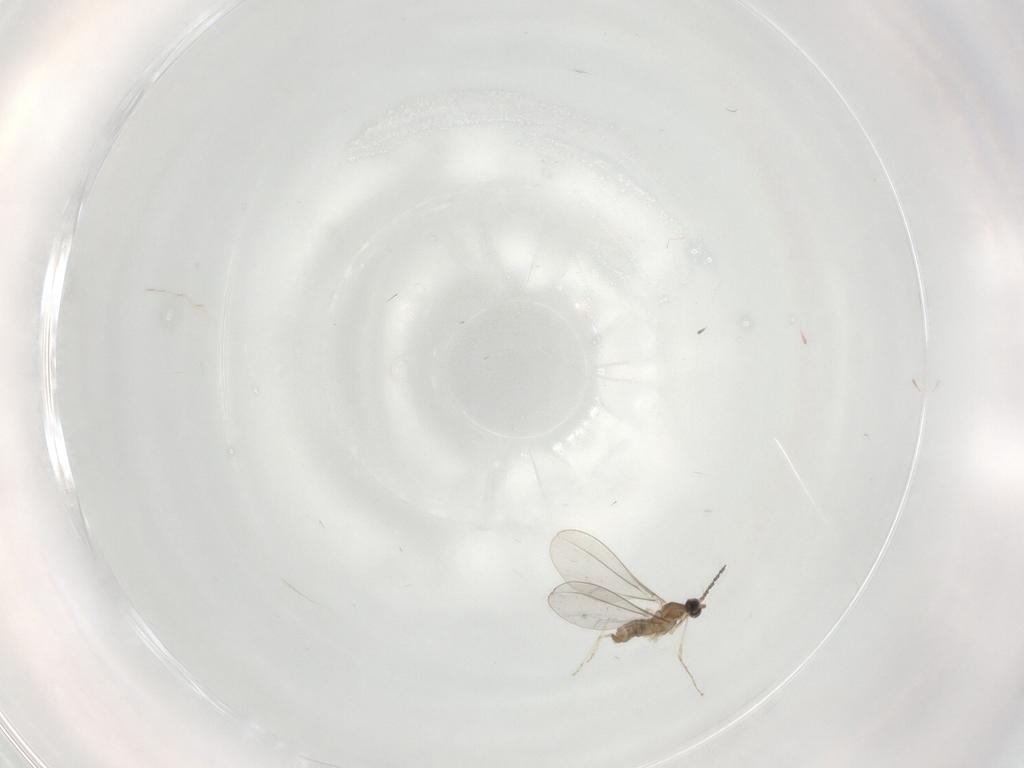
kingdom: Animalia
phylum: Arthropoda
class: Insecta
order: Diptera
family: Cecidomyiidae
